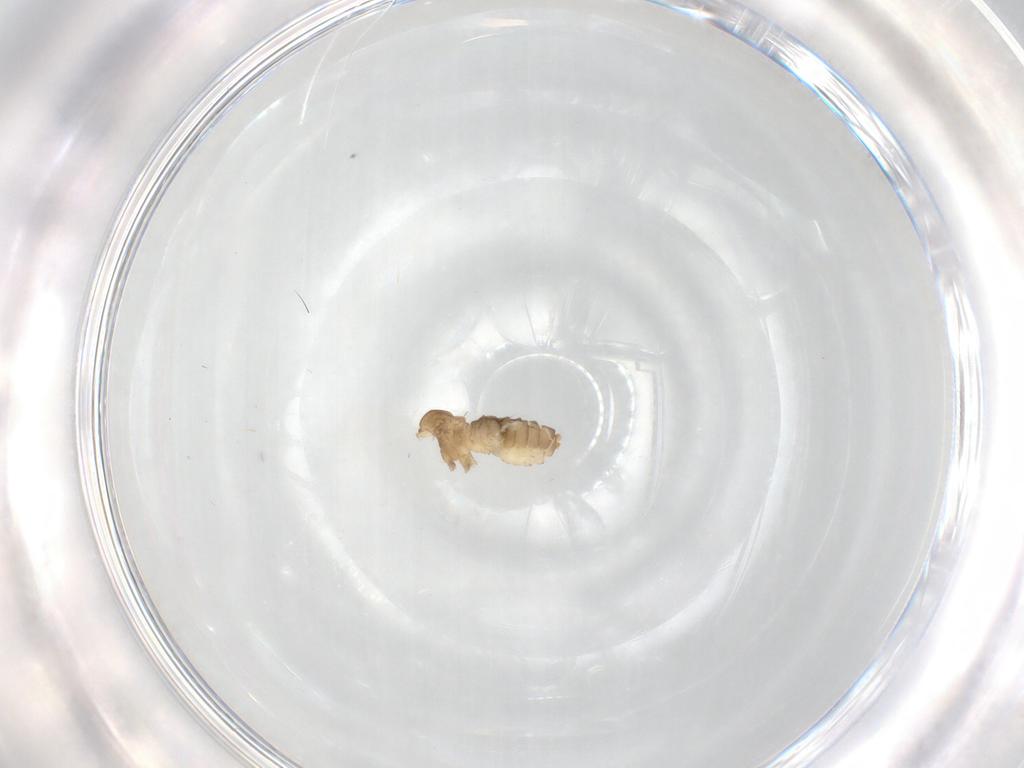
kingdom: Animalia
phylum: Arthropoda
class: Insecta
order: Diptera
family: Cecidomyiidae
